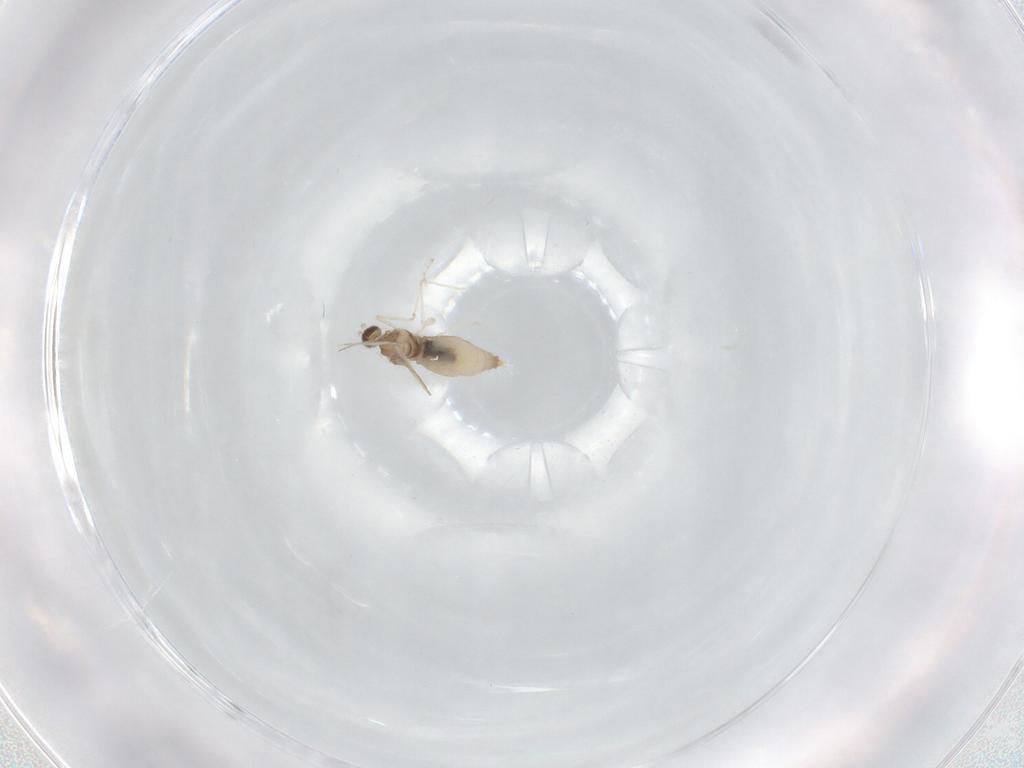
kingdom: Animalia
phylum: Arthropoda
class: Insecta
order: Diptera
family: Cecidomyiidae
